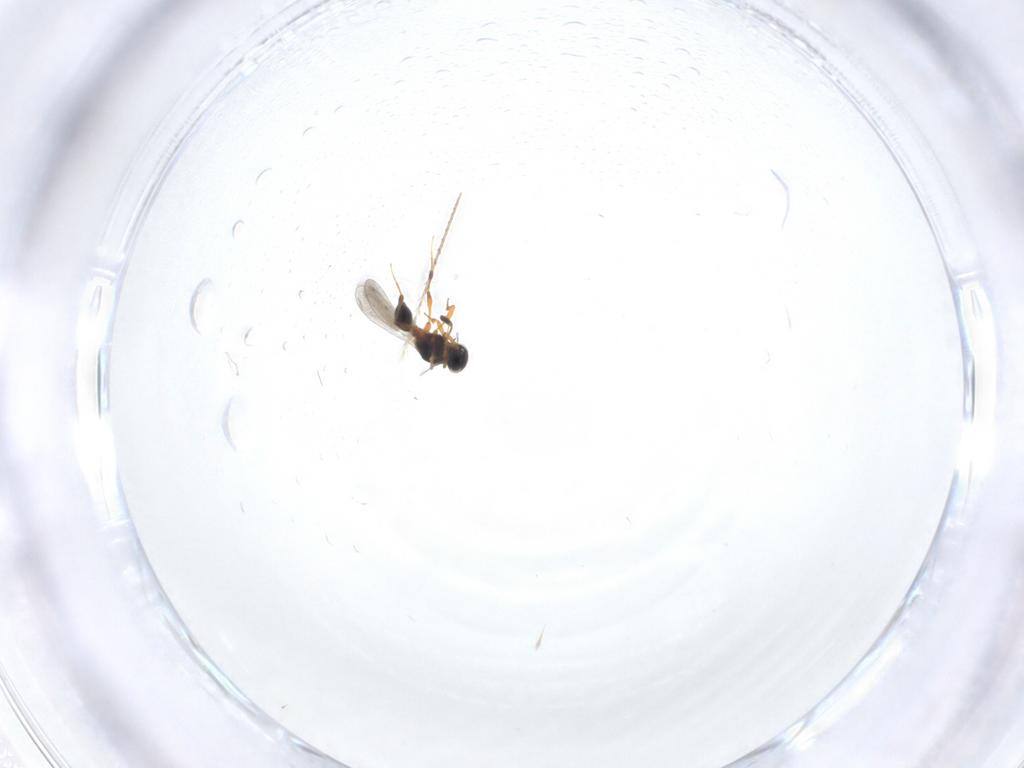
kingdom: Animalia
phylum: Arthropoda
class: Insecta
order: Hymenoptera
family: Platygastridae
